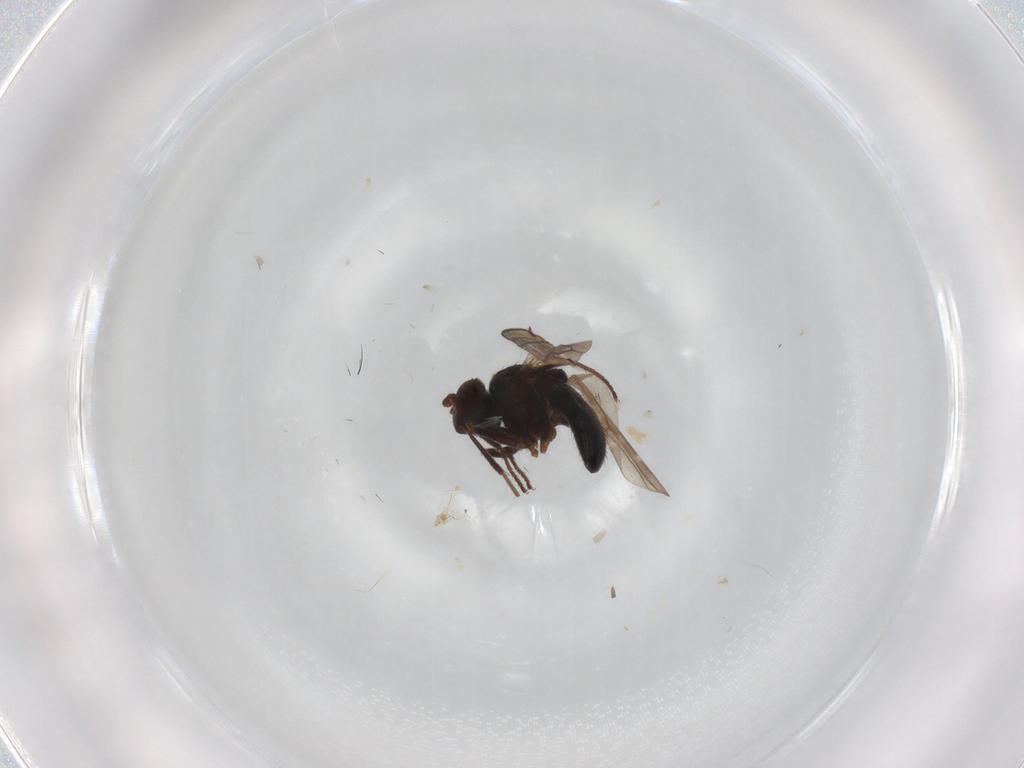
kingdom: Animalia
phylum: Arthropoda
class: Insecta
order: Diptera
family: Ephydridae
